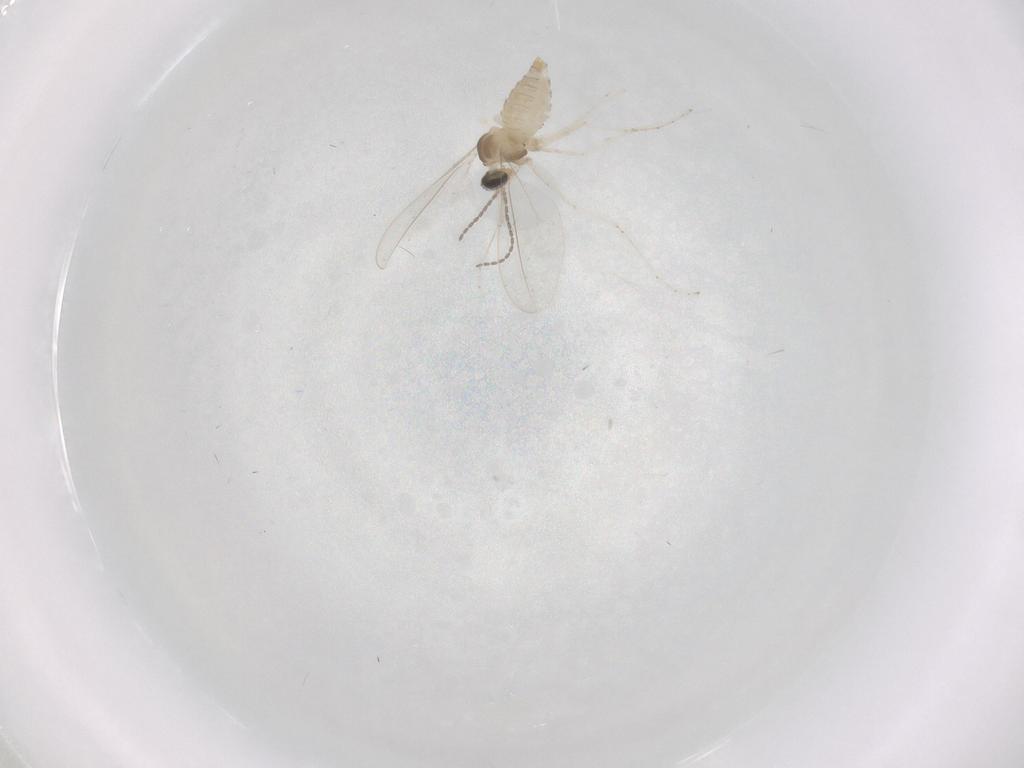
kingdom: Animalia
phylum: Arthropoda
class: Insecta
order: Diptera
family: Cecidomyiidae
